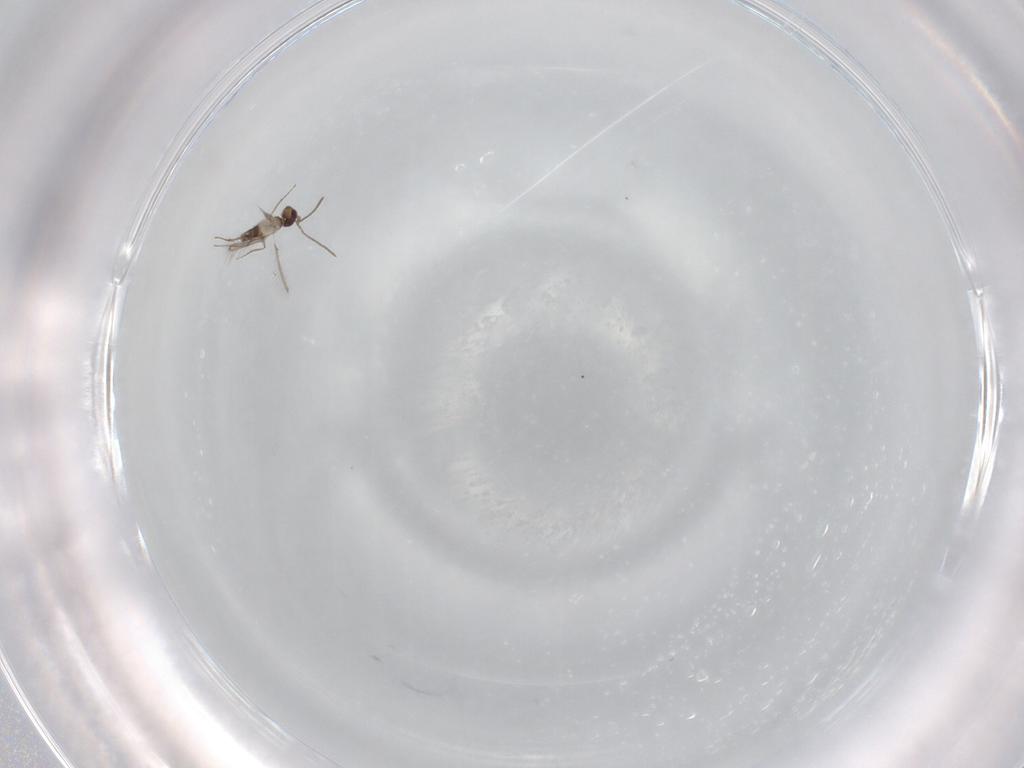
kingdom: Animalia
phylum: Arthropoda
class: Insecta
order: Hymenoptera
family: Mymaridae
